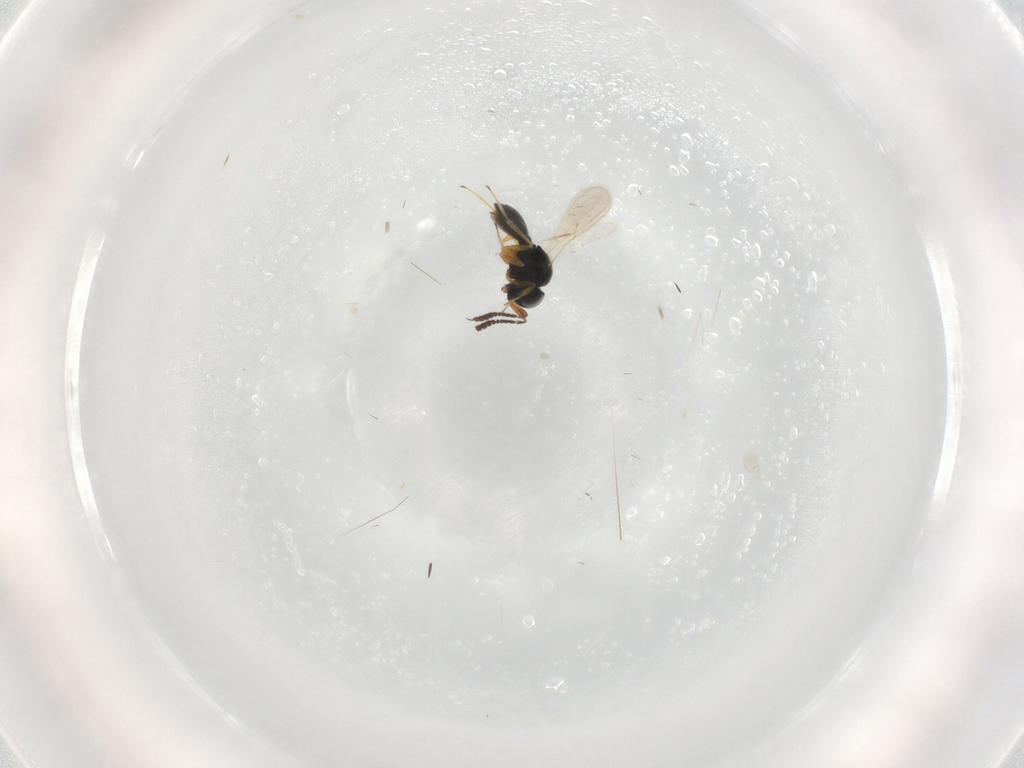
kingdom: Animalia
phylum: Arthropoda
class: Insecta
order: Hymenoptera
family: Scelionidae
